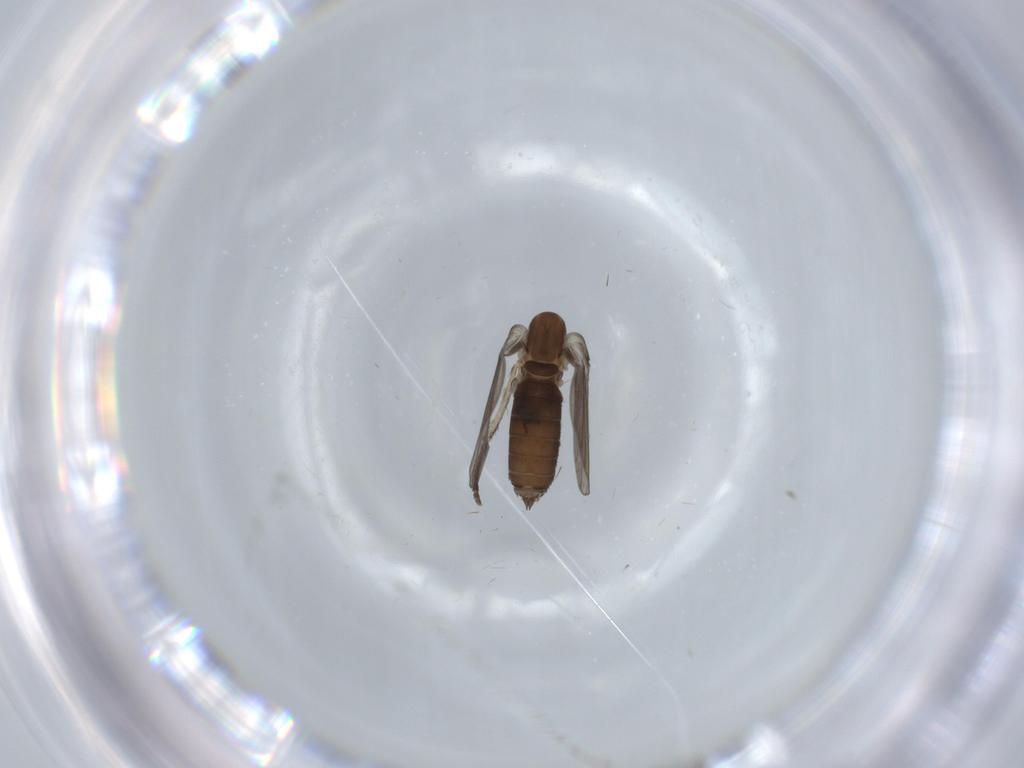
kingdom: Animalia
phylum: Arthropoda
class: Insecta
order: Diptera
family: Psychodidae
